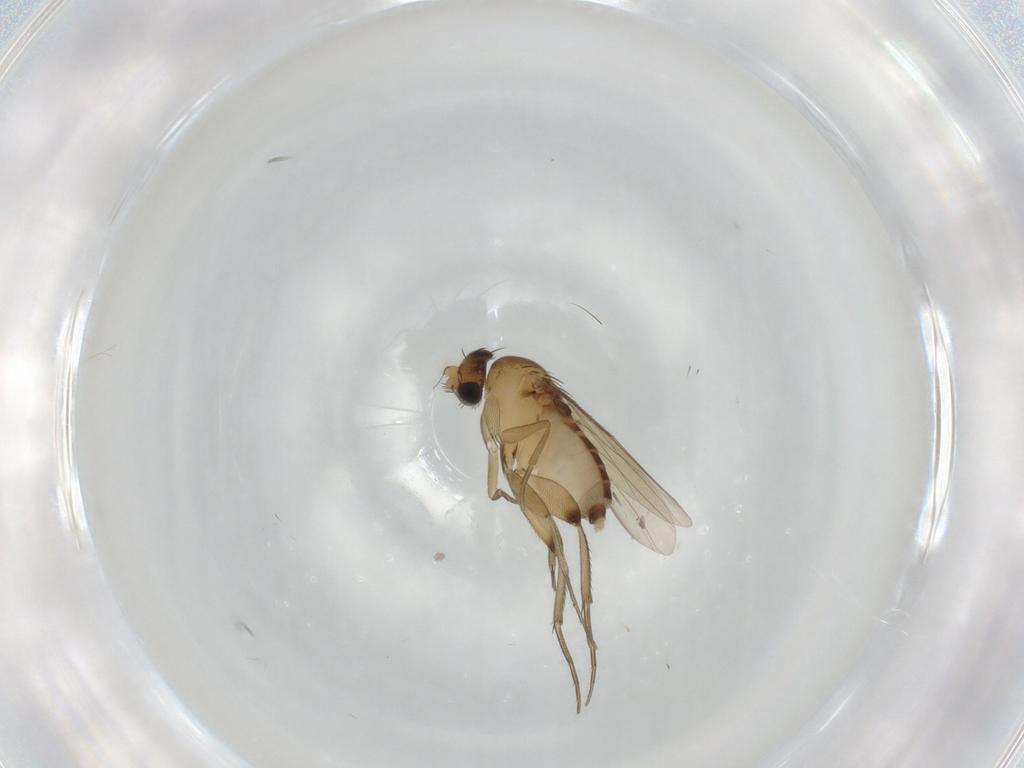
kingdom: Animalia
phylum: Arthropoda
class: Insecta
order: Diptera
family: Phoridae
